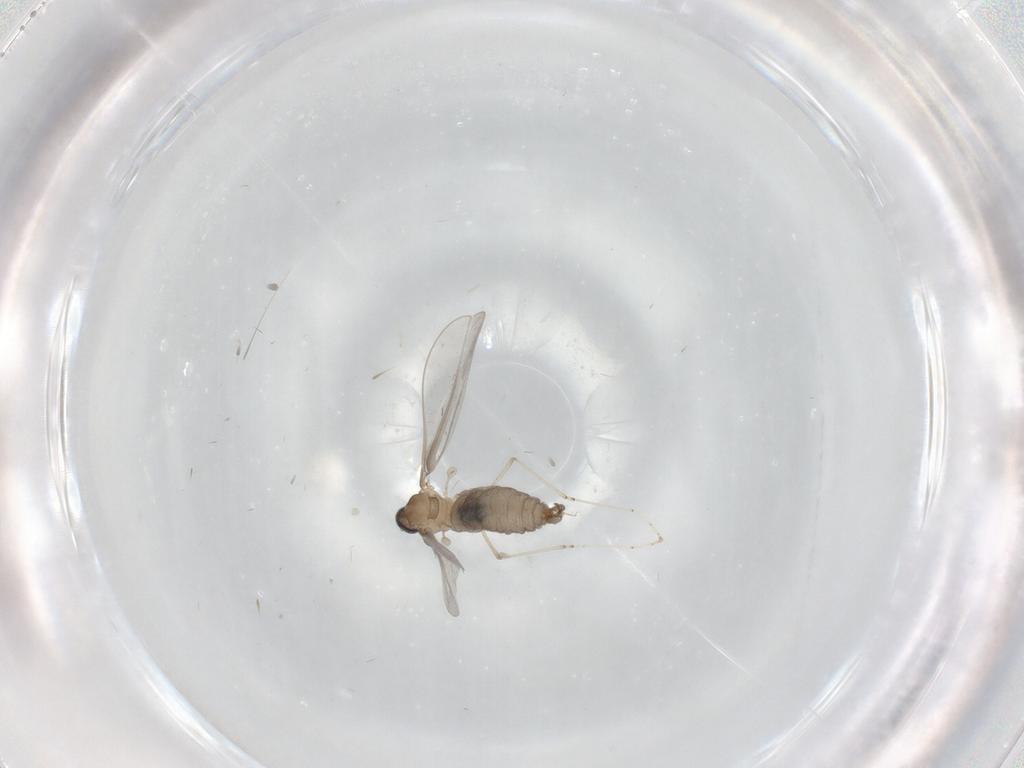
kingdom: Animalia
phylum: Arthropoda
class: Insecta
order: Diptera
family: Cecidomyiidae
